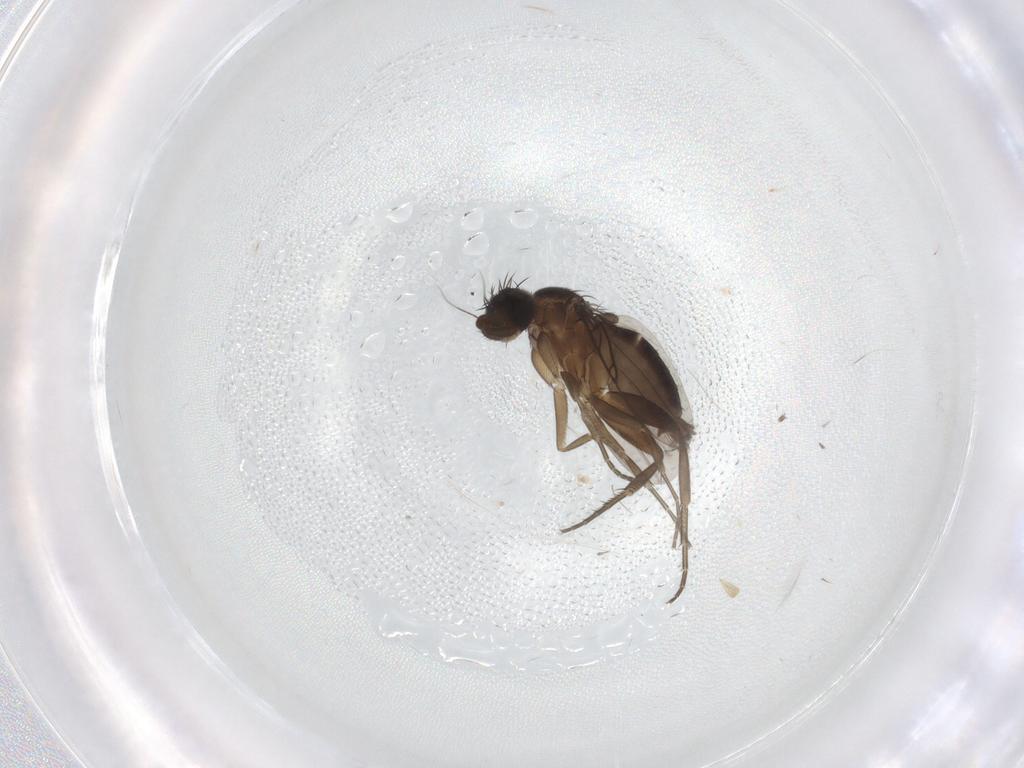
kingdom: Animalia
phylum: Arthropoda
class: Insecta
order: Diptera
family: Phoridae
